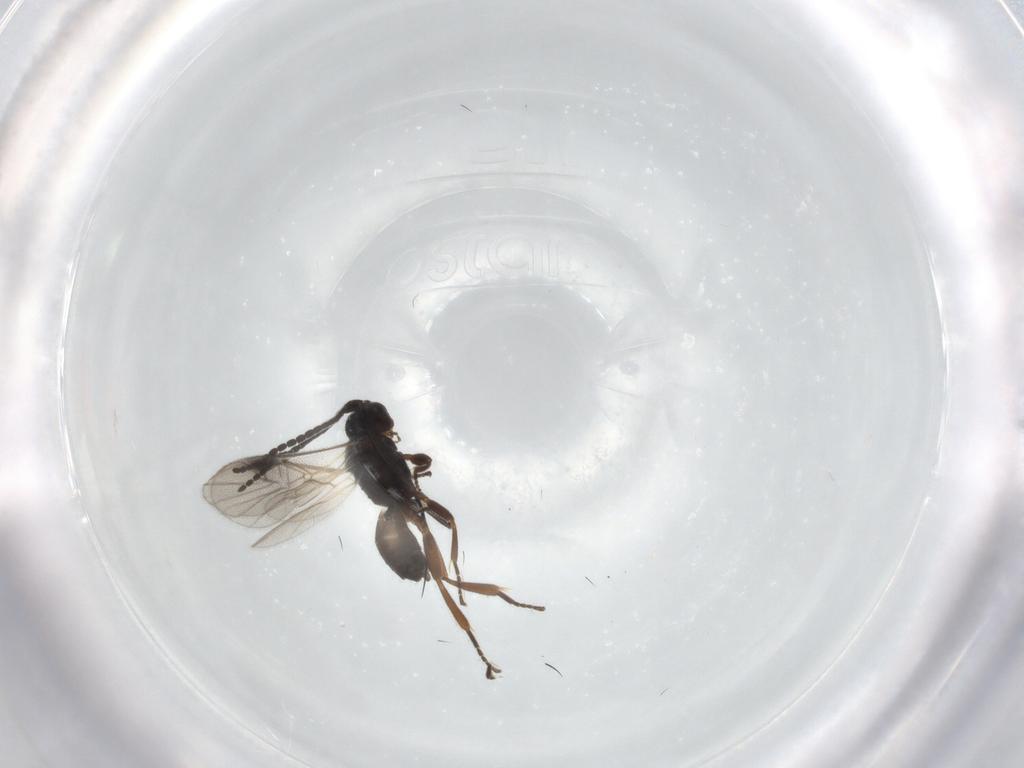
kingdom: Animalia
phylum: Arthropoda
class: Insecta
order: Hymenoptera
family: Braconidae
